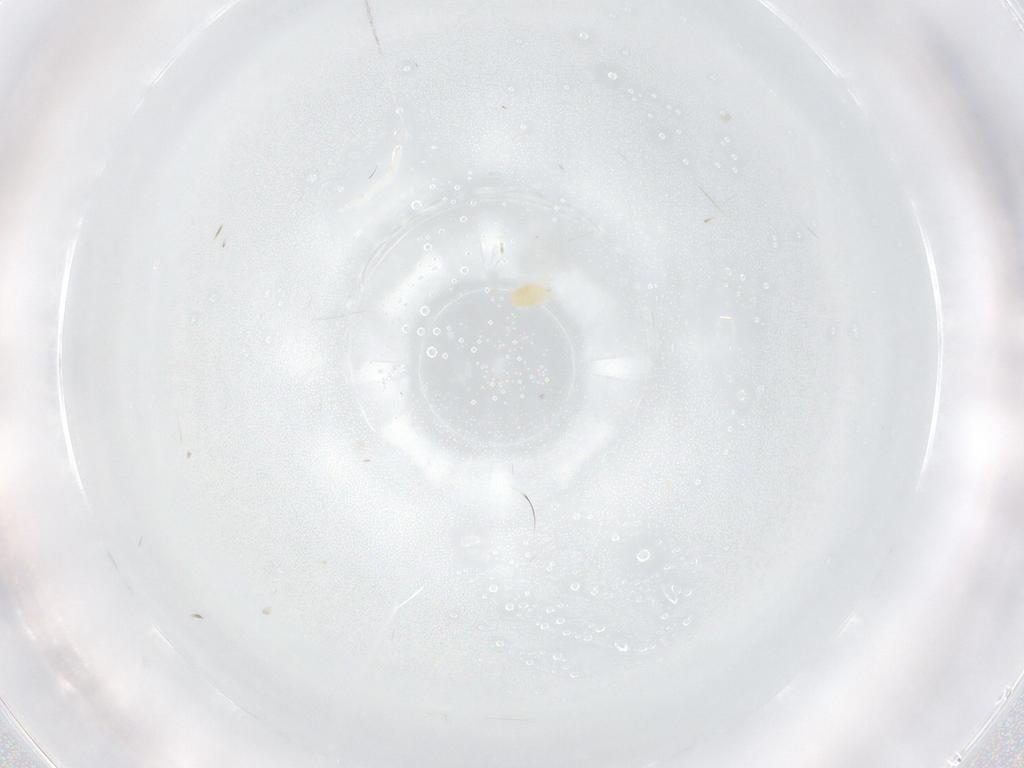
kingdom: Animalia
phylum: Arthropoda
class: Arachnida
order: Trombidiformes
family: Tetranychidae
